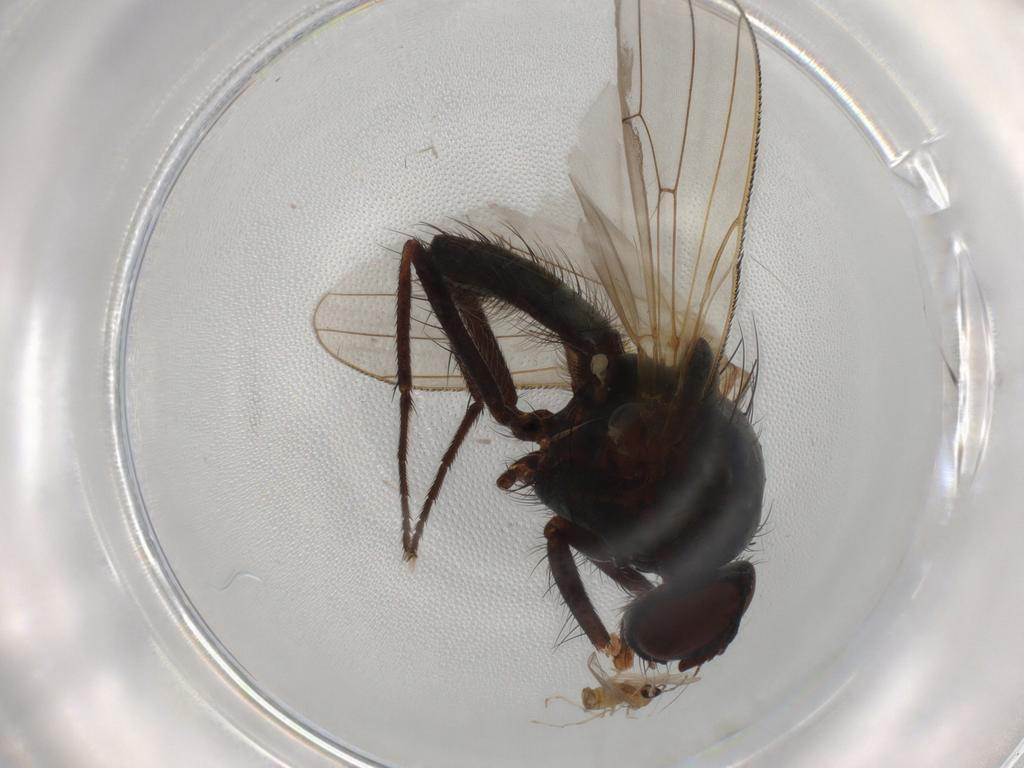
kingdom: Animalia
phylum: Arthropoda
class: Insecta
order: Diptera
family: Anthomyiidae
